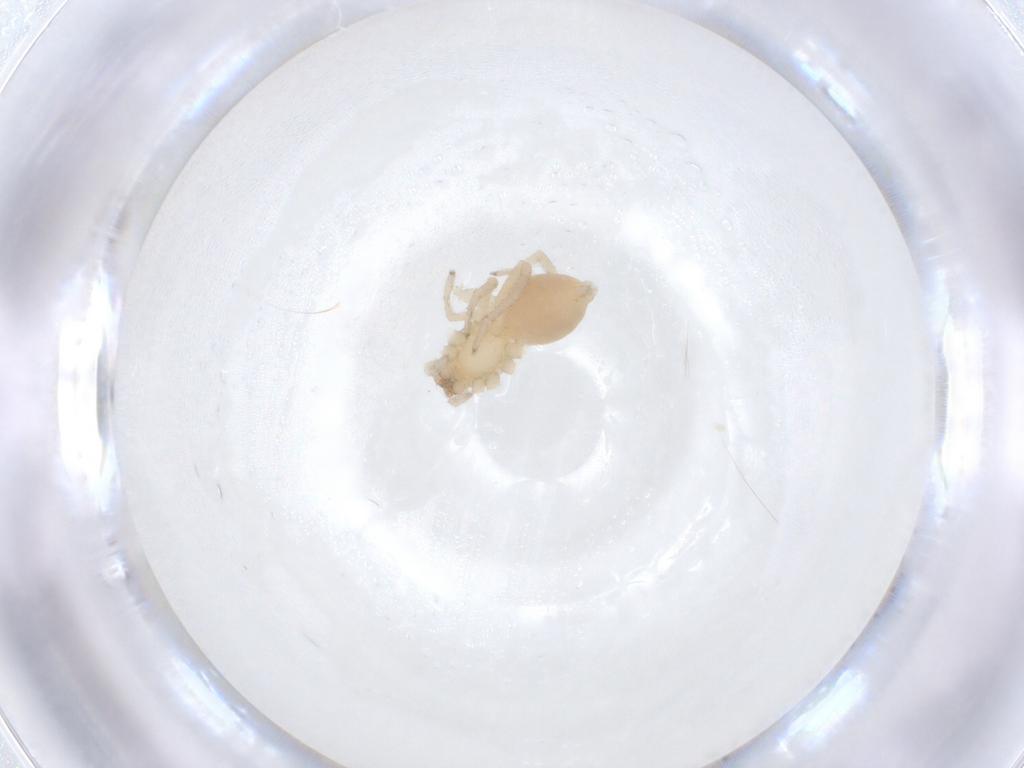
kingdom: Animalia
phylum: Arthropoda
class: Arachnida
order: Araneae
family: Clubionidae
